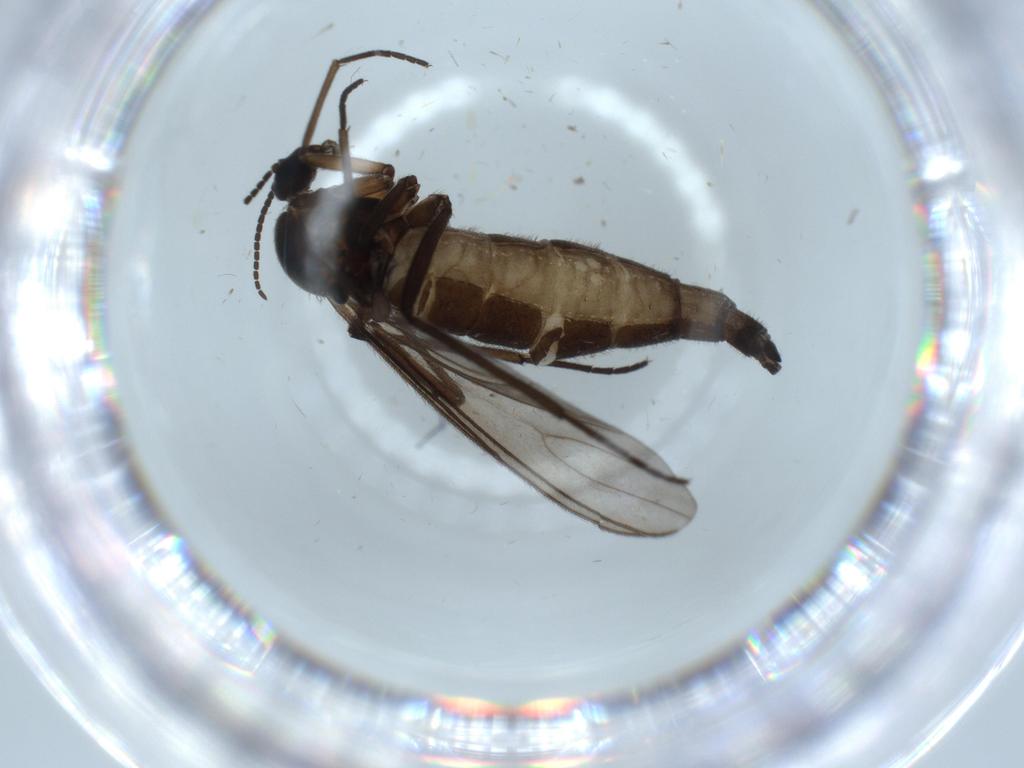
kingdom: Animalia
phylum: Arthropoda
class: Insecta
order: Diptera
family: Sciaridae
